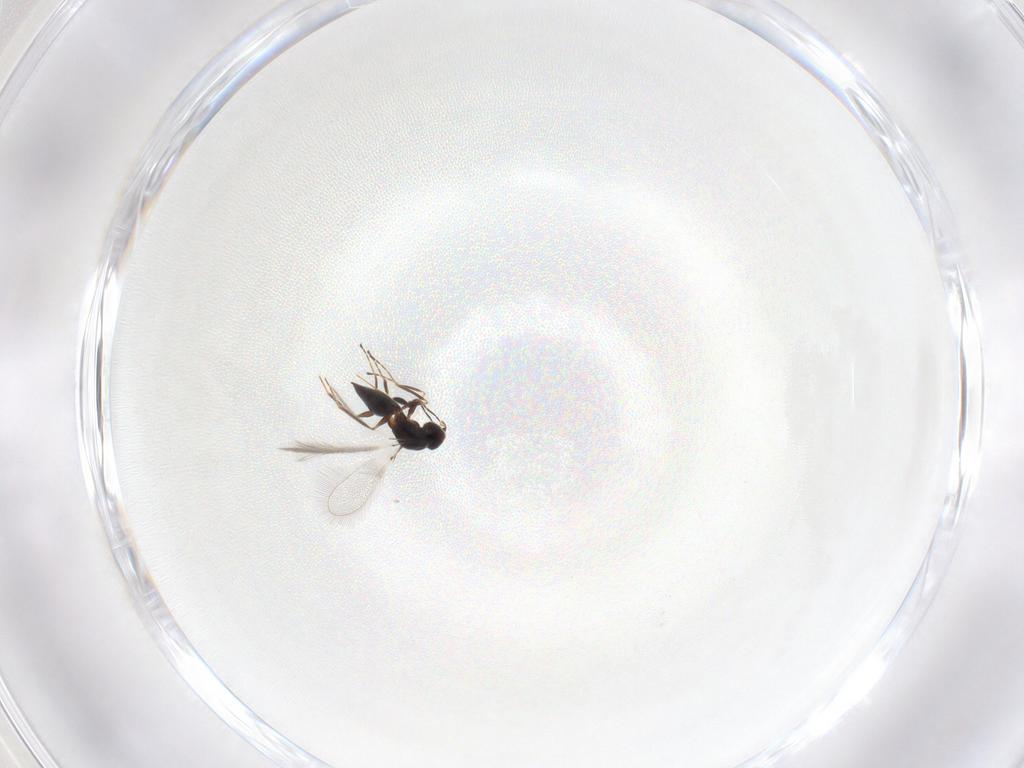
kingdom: Animalia
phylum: Arthropoda
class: Insecta
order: Hymenoptera
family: Mymaridae
